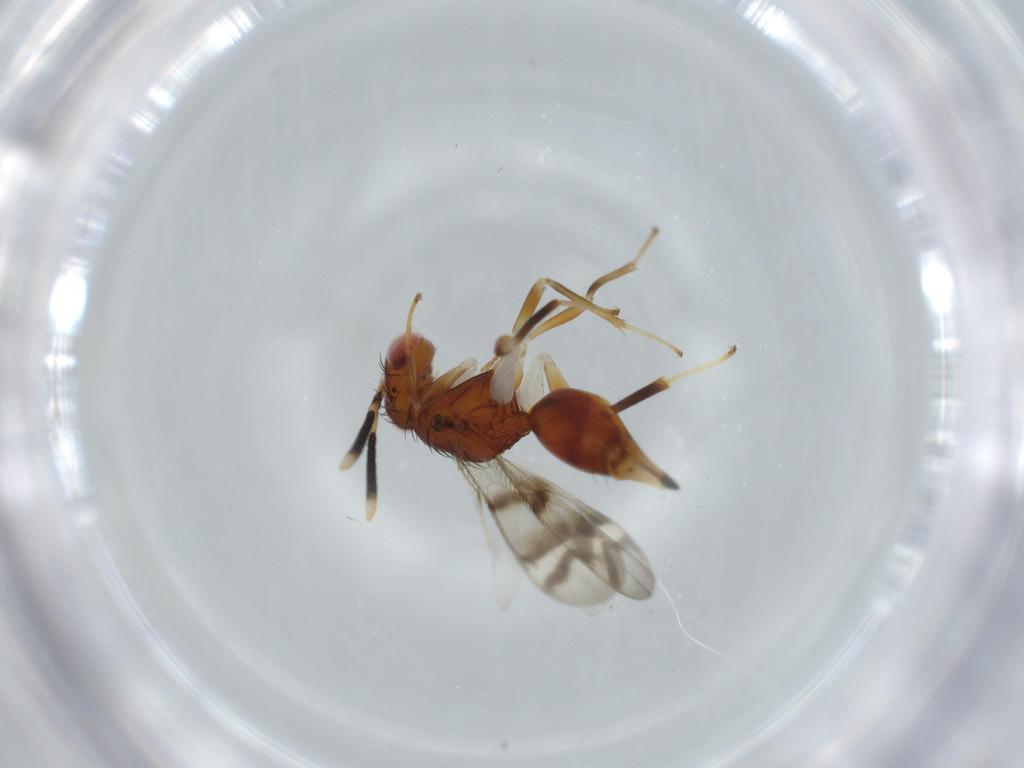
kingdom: Animalia
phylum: Arthropoda
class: Insecta
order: Hymenoptera
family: Diparidae
